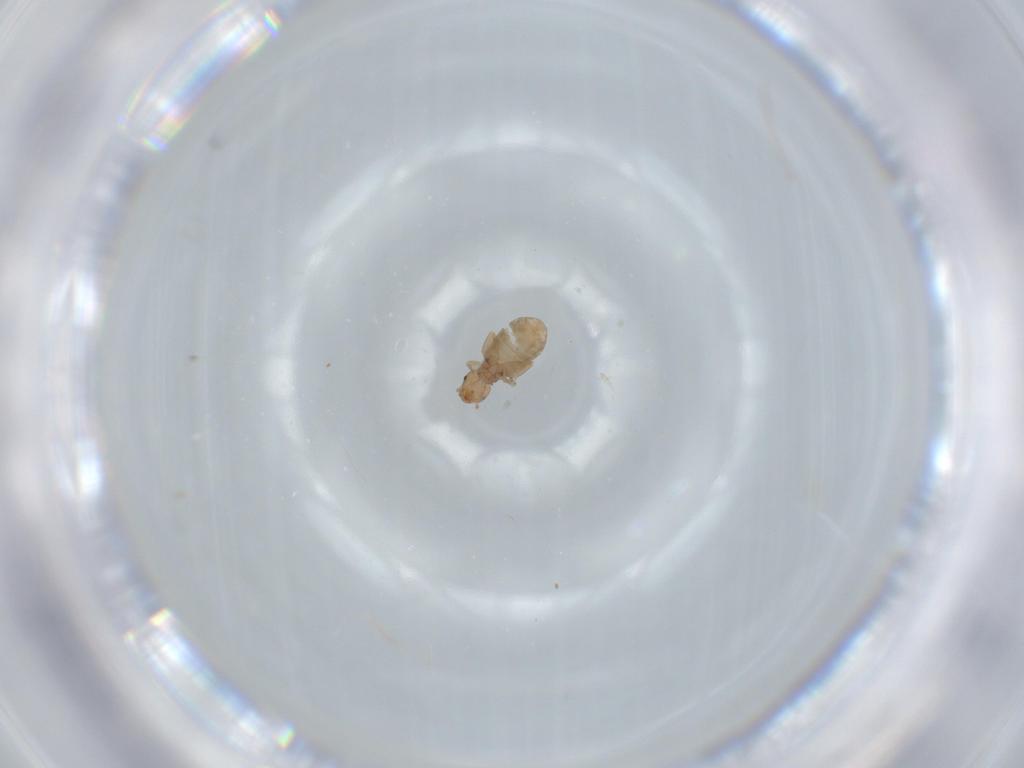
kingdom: Animalia
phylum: Arthropoda
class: Insecta
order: Psocodea
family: Liposcelididae
